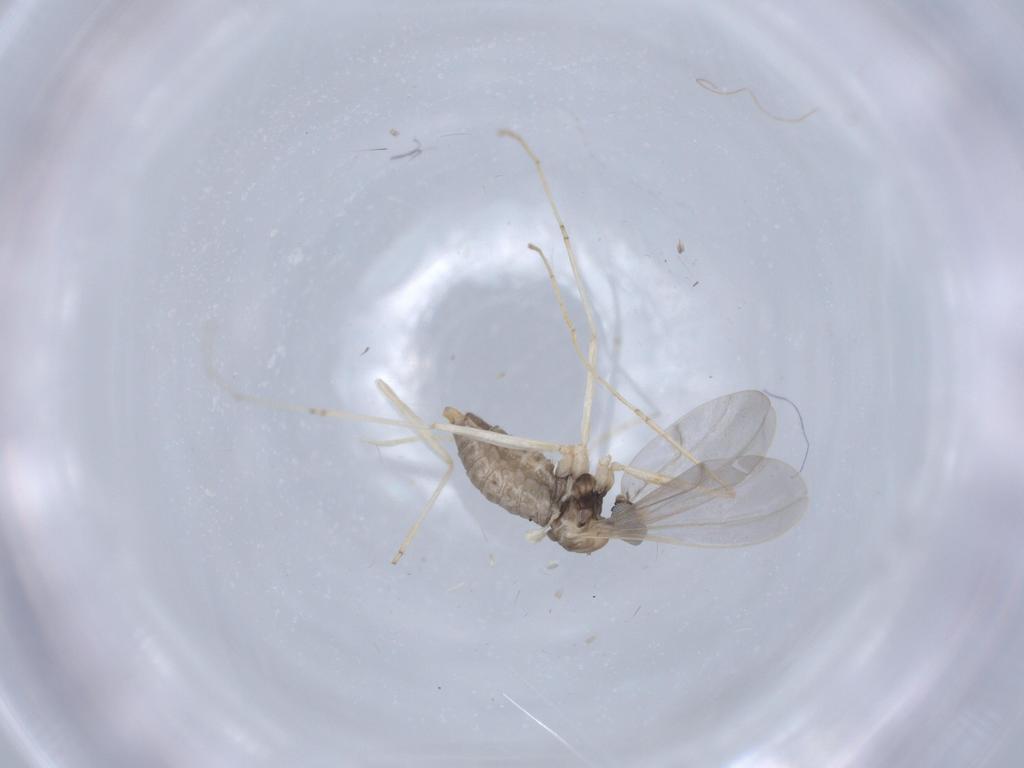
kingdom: Animalia
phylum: Arthropoda
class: Insecta
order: Diptera
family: Cecidomyiidae
